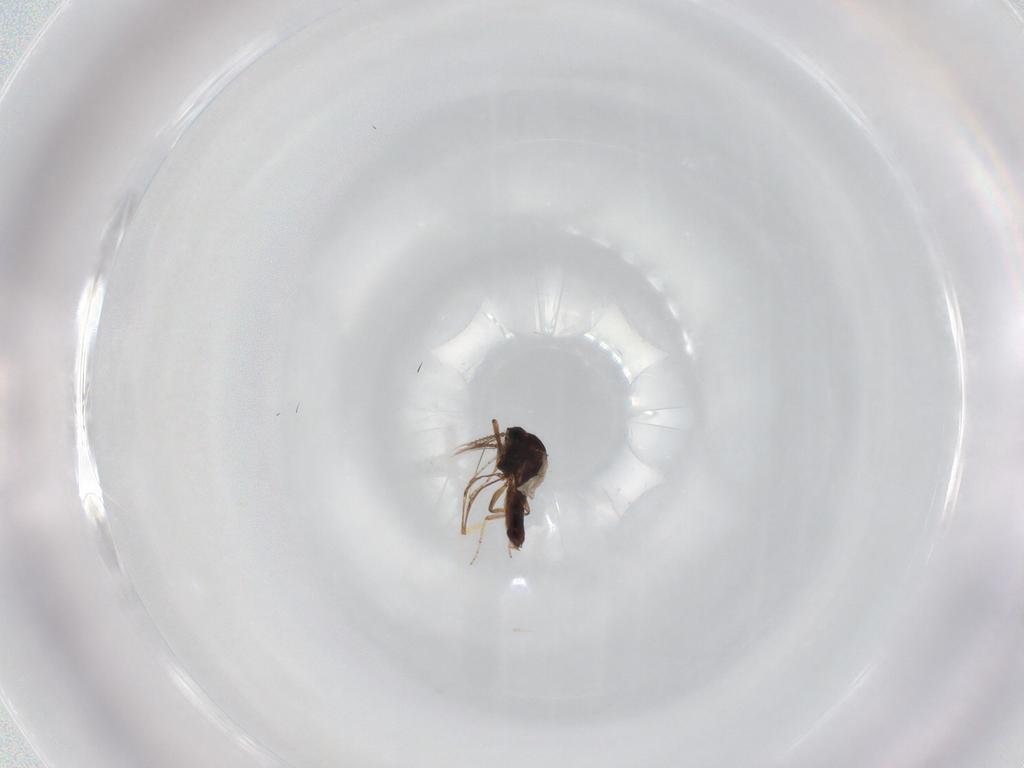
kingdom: Animalia
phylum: Arthropoda
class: Insecta
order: Diptera
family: Ceratopogonidae
